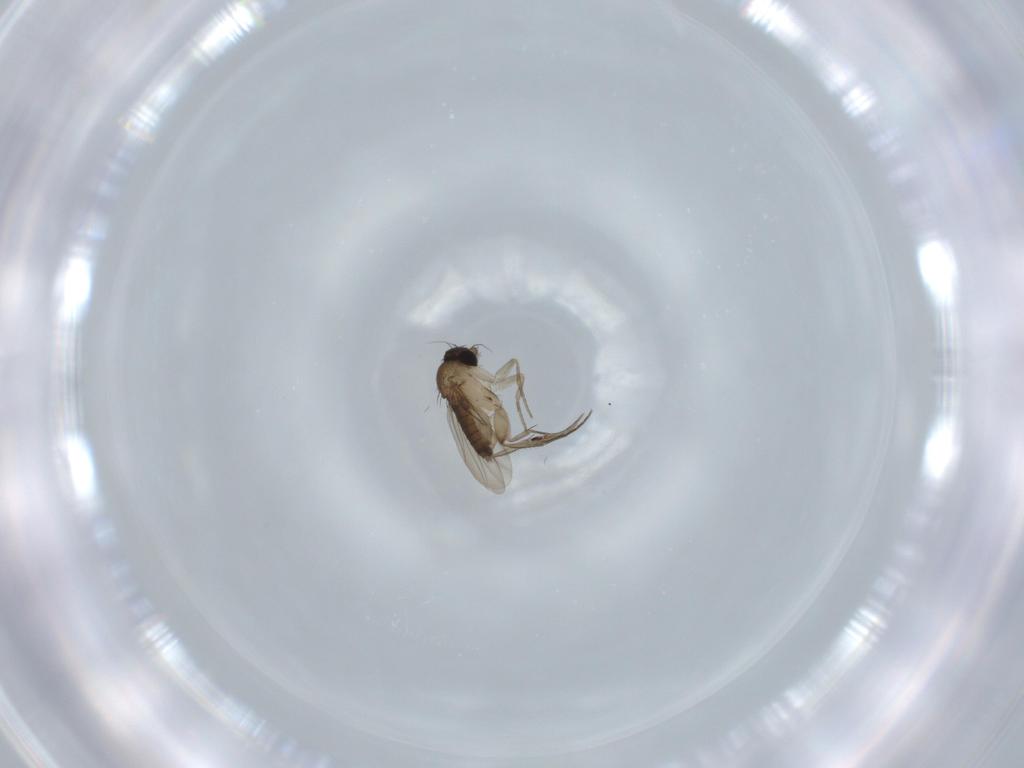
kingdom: Animalia
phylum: Arthropoda
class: Insecta
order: Diptera
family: Phoridae
